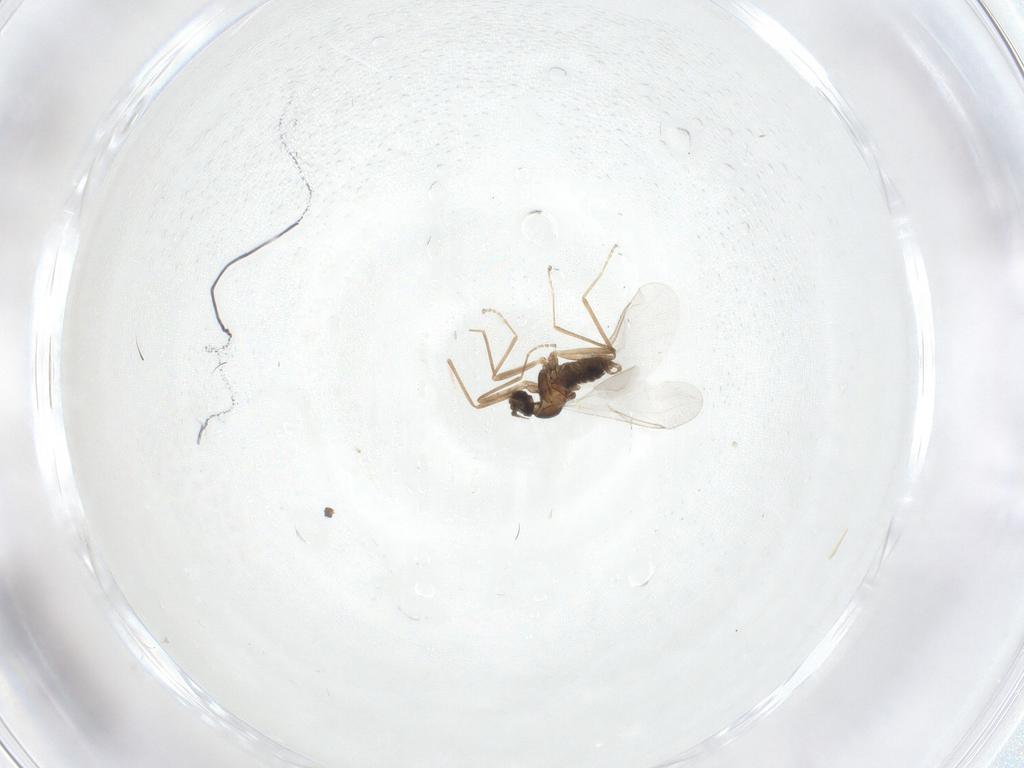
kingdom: Animalia
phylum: Arthropoda
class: Insecta
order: Diptera
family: Cecidomyiidae
